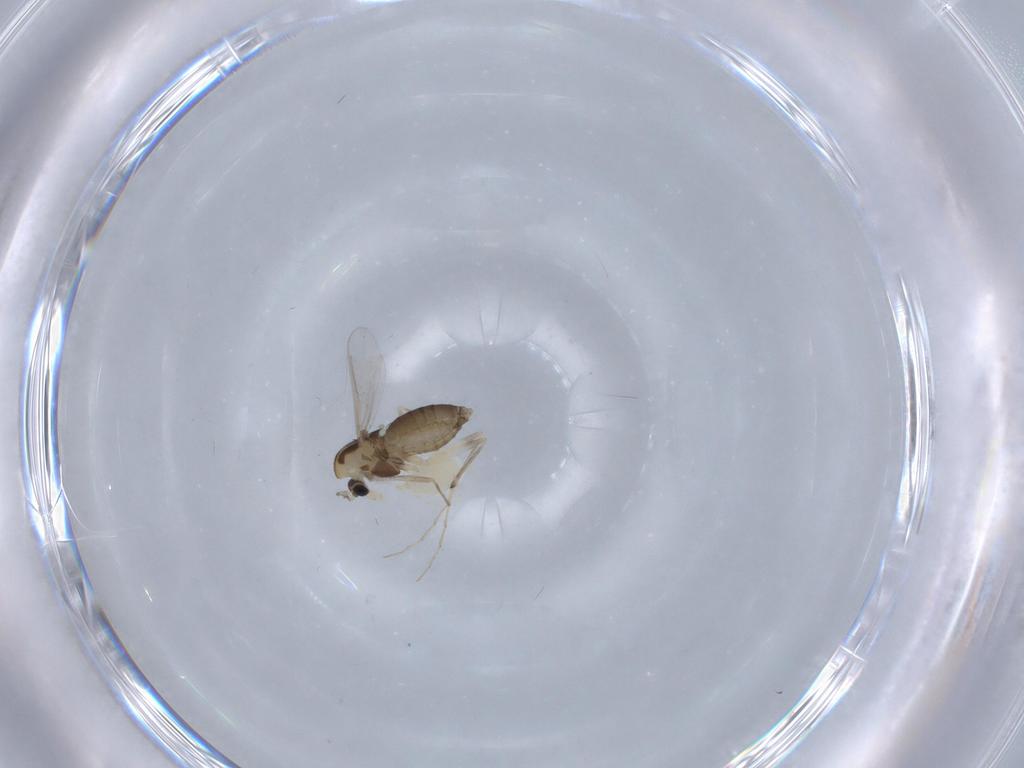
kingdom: Animalia
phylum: Arthropoda
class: Insecta
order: Diptera
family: Chironomidae
